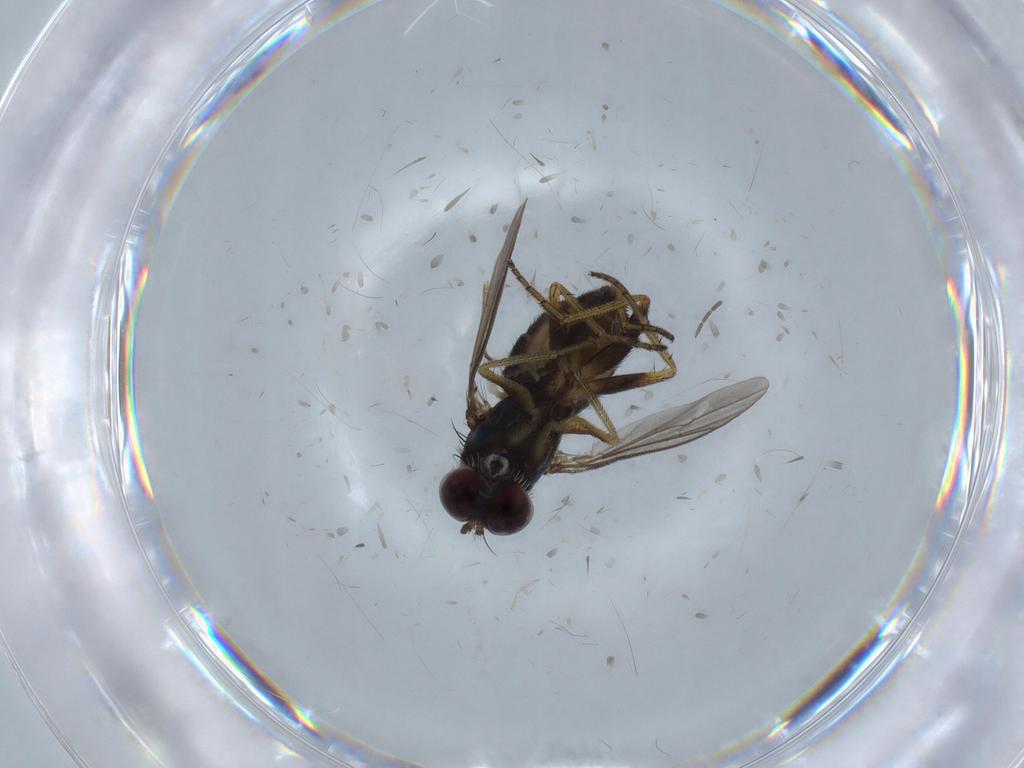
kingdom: Animalia
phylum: Arthropoda
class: Insecta
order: Diptera
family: Sciaridae
